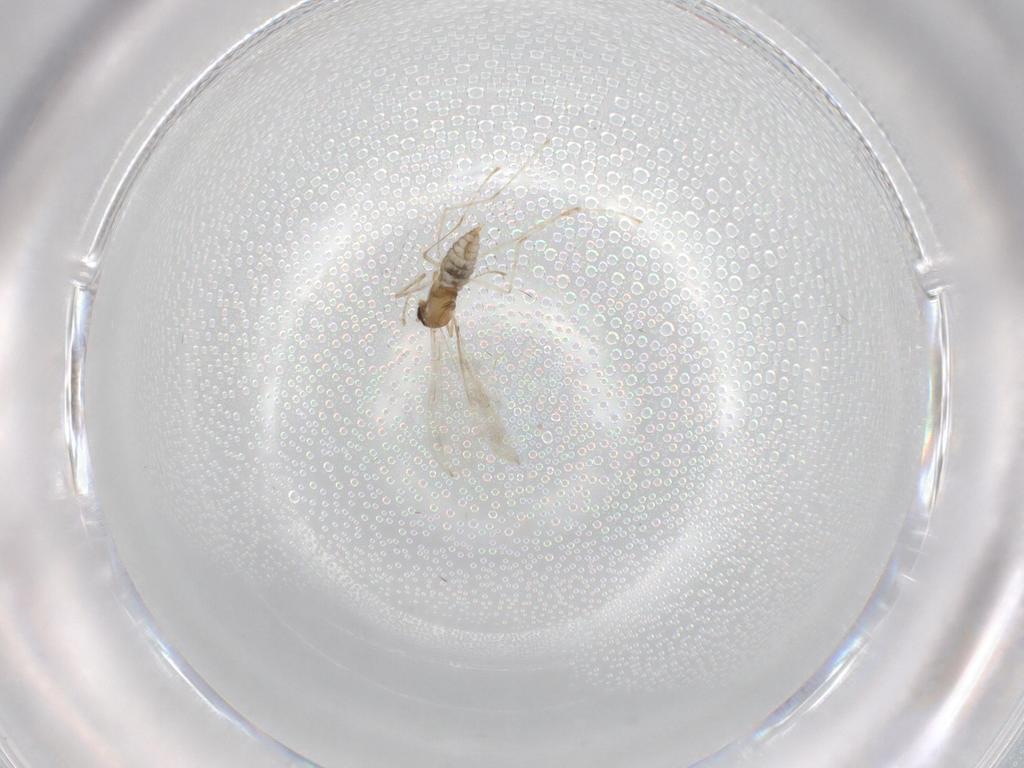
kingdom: Animalia
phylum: Arthropoda
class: Insecta
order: Diptera
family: Cecidomyiidae
